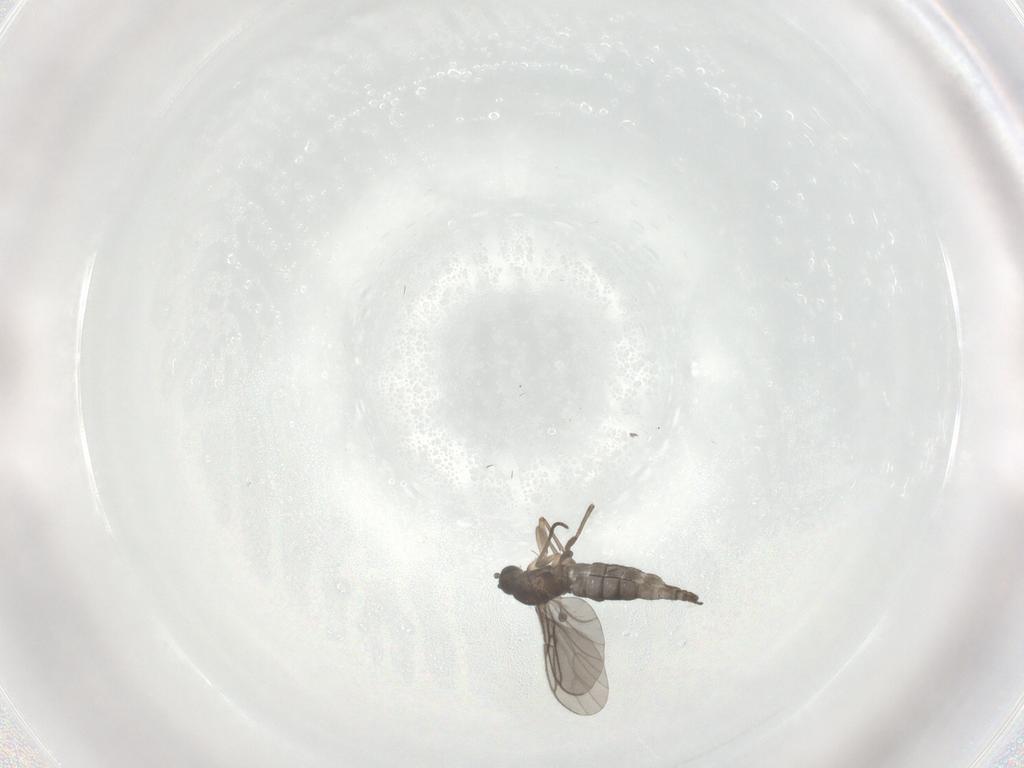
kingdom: Animalia
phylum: Arthropoda
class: Insecta
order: Diptera
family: Sciaridae
